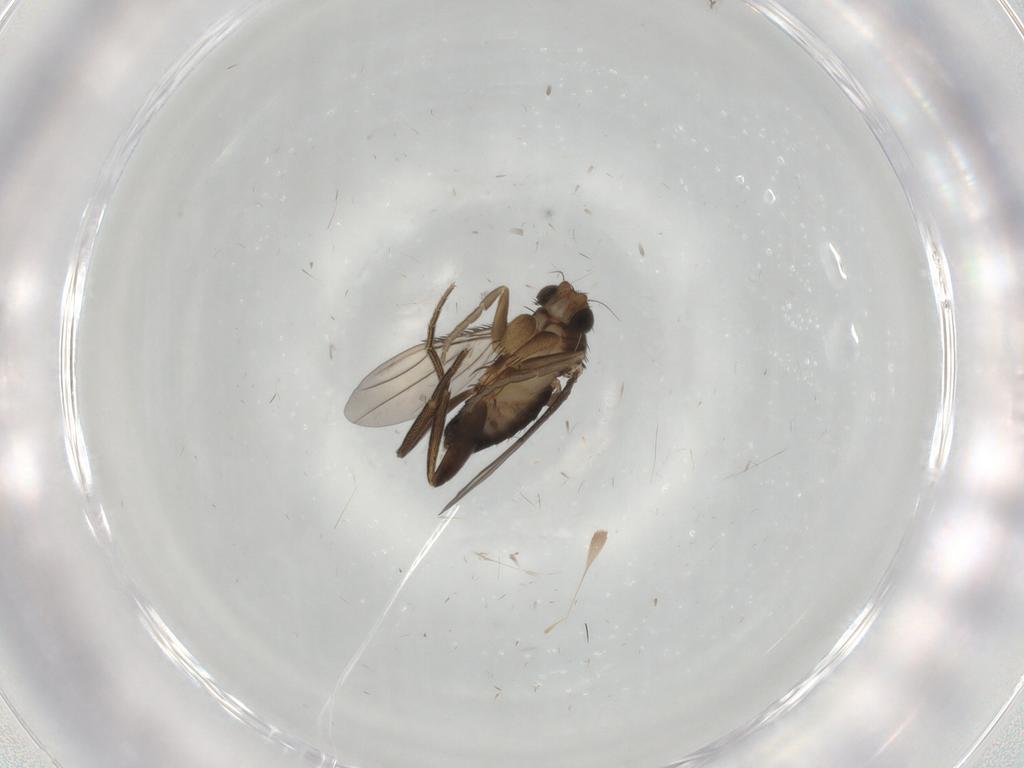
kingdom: Animalia
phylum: Arthropoda
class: Insecta
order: Diptera
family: Phoridae
